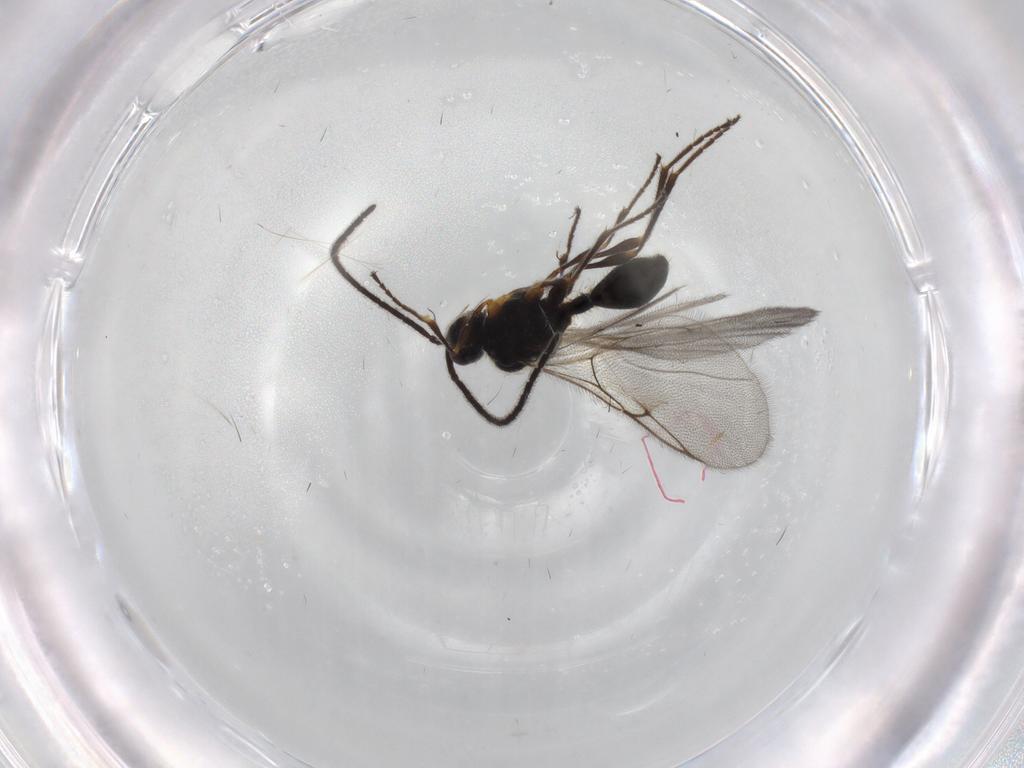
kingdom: Animalia
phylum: Arthropoda
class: Insecta
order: Hymenoptera
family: Diapriidae
